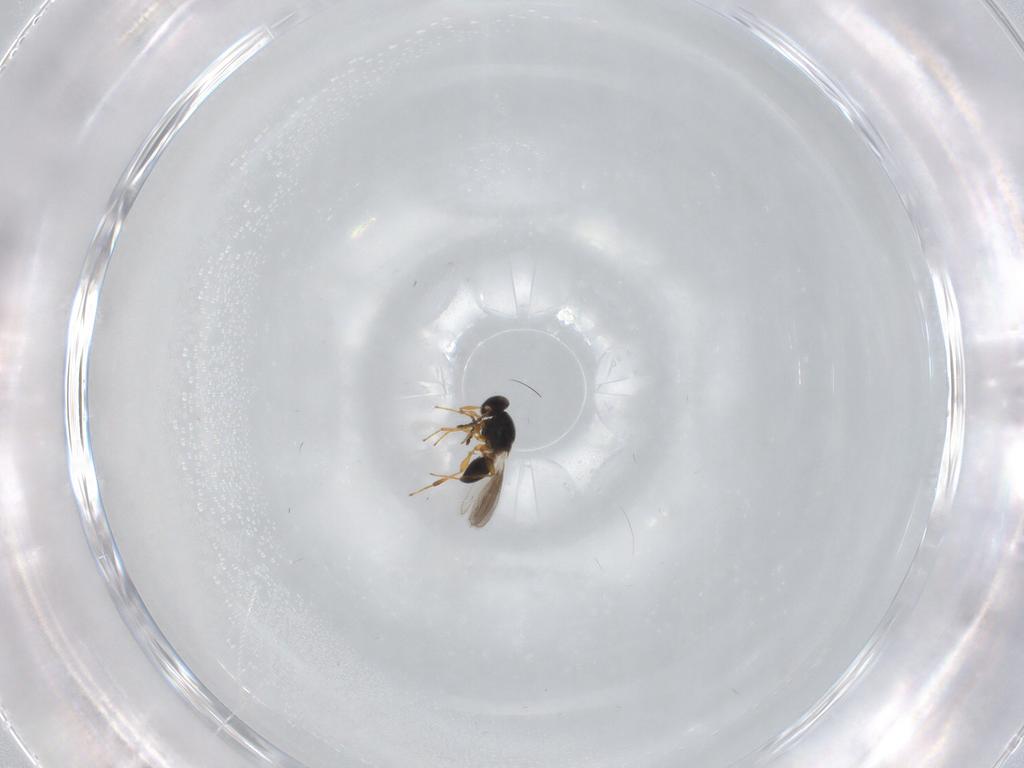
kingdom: Animalia
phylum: Arthropoda
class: Insecta
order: Hymenoptera
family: Platygastridae
